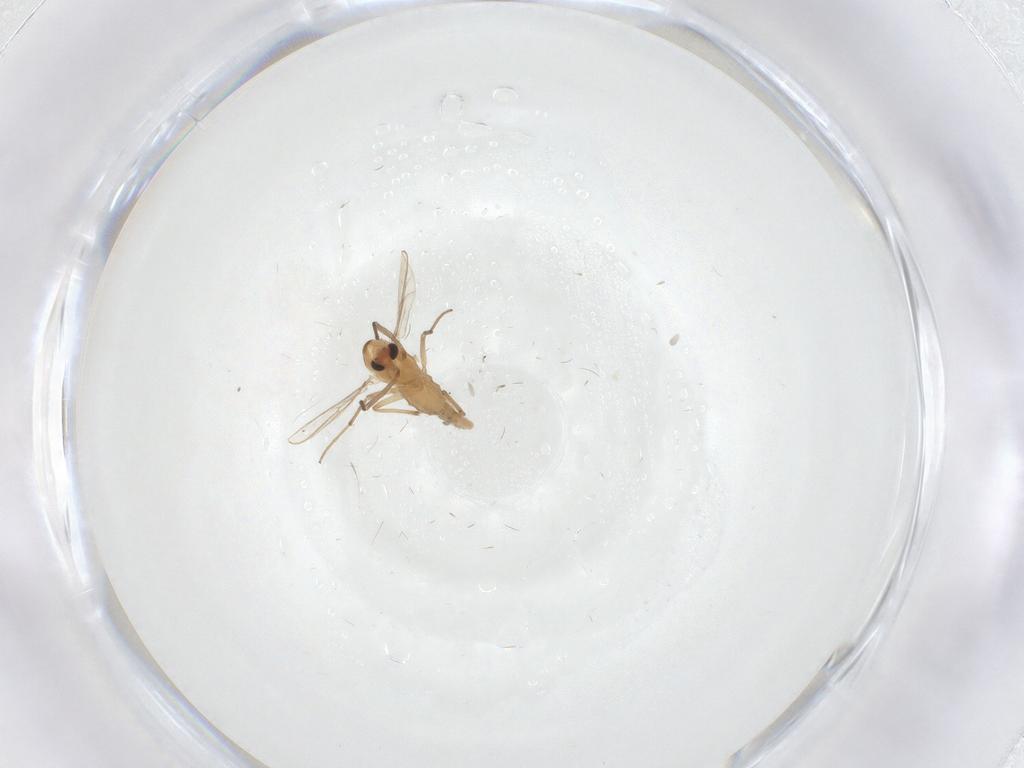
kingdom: Animalia
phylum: Arthropoda
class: Insecta
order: Diptera
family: Chironomidae
